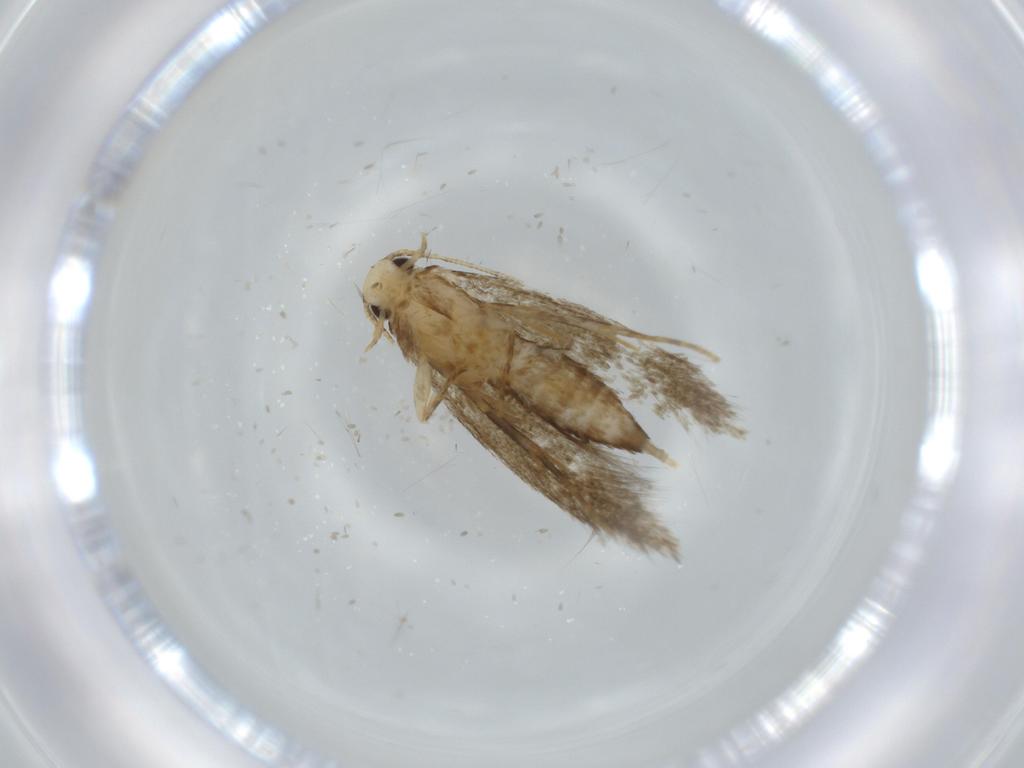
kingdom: Animalia
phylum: Arthropoda
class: Insecta
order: Lepidoptera
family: Tineidae
